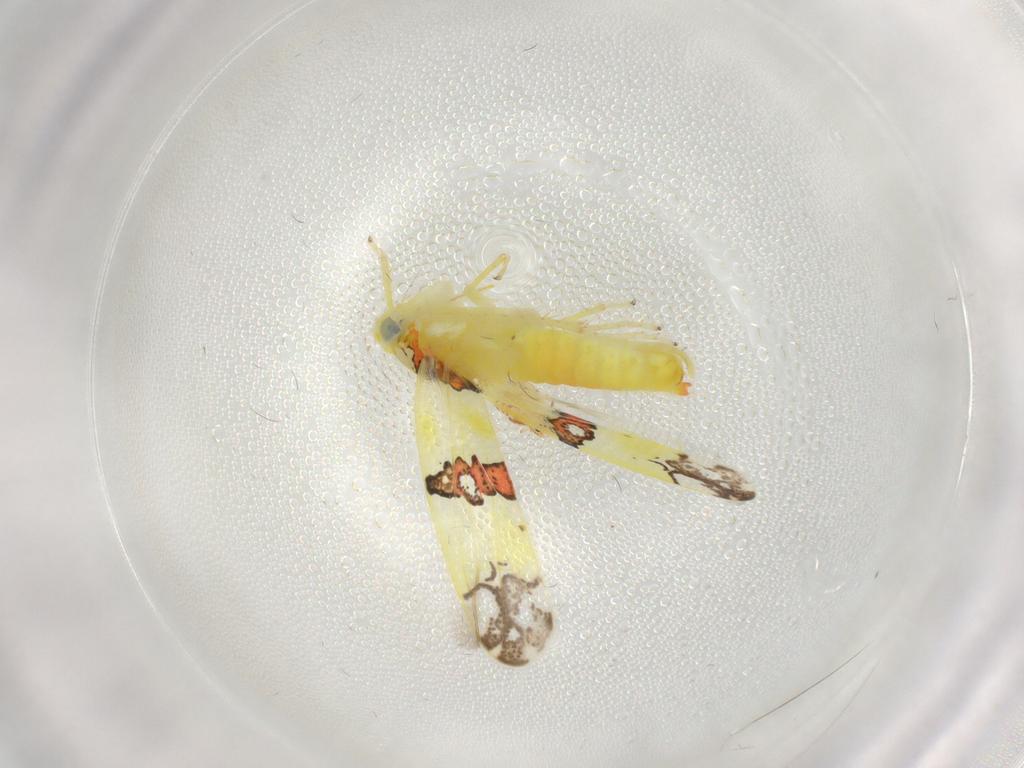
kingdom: Animalia
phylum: Arthropoda
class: Insecta
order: Hemiptera
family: Cicadellidae
